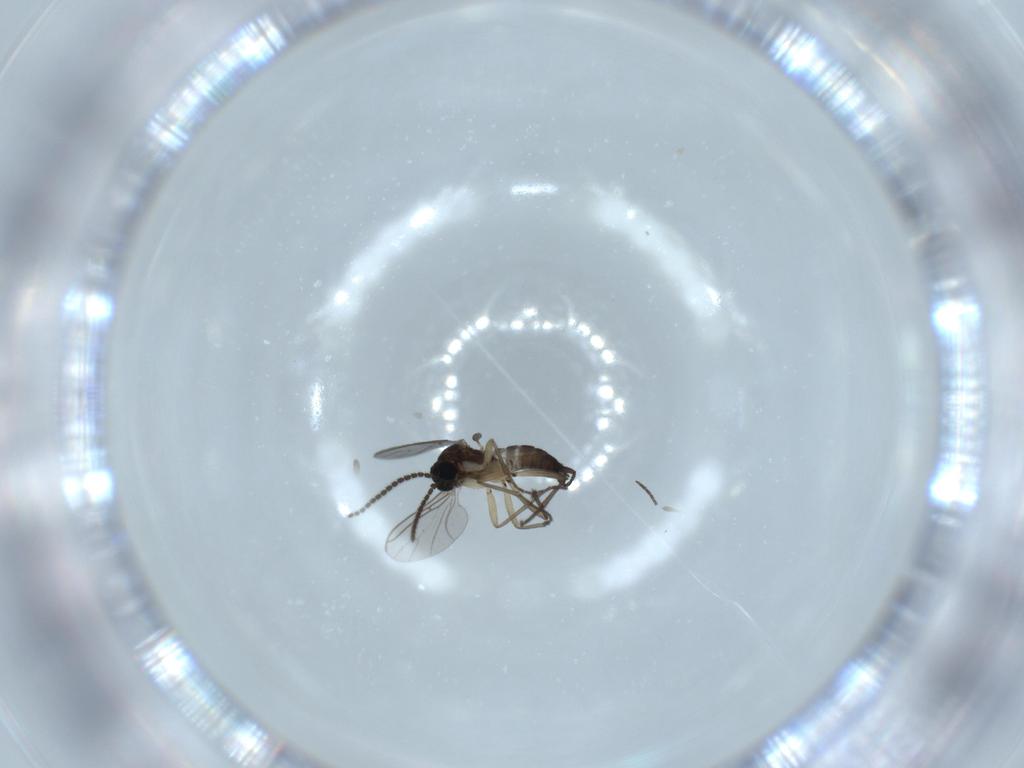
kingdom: Animalia
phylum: Arthropoda
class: Insecta
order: Diptera
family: Sciaridae
